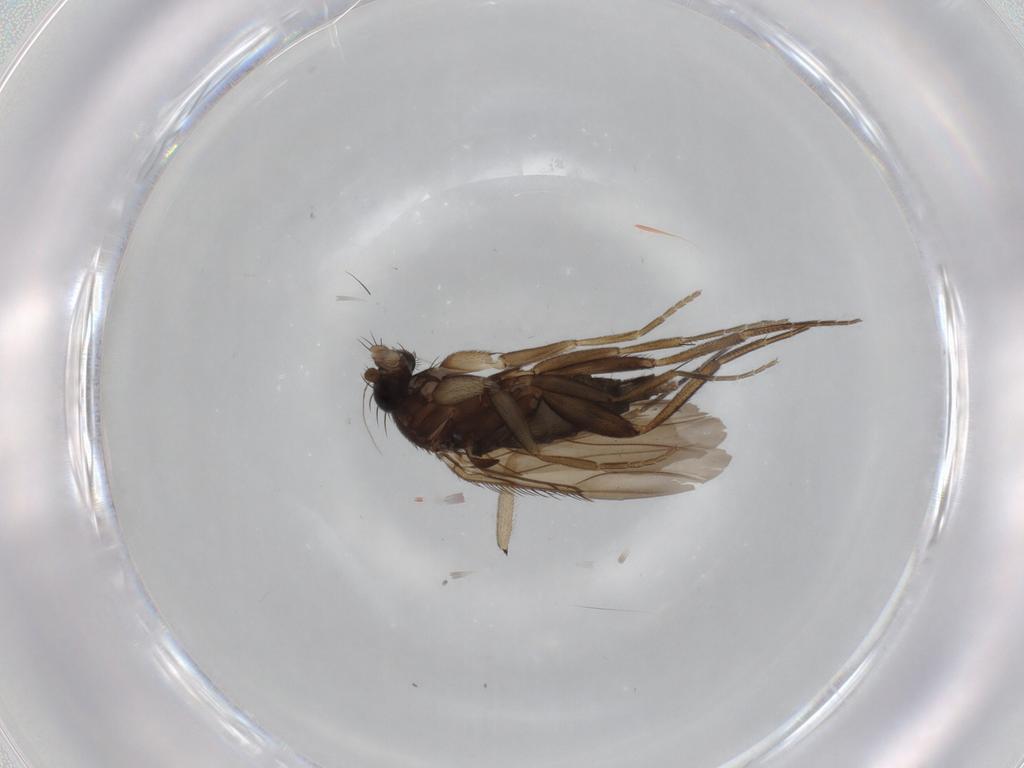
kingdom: Animalia
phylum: Arthropoda
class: Insecta
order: Diptera
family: Phoridae
